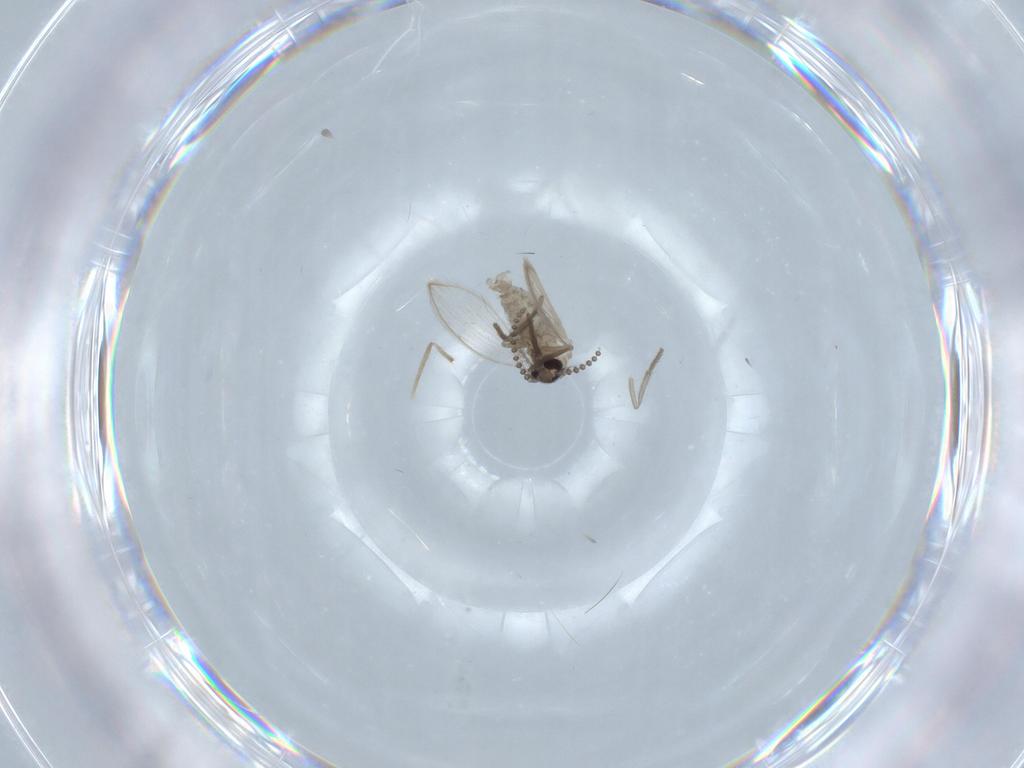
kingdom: Animalia
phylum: Arthropoda
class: Insecta
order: Diptera
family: Psychodidae
